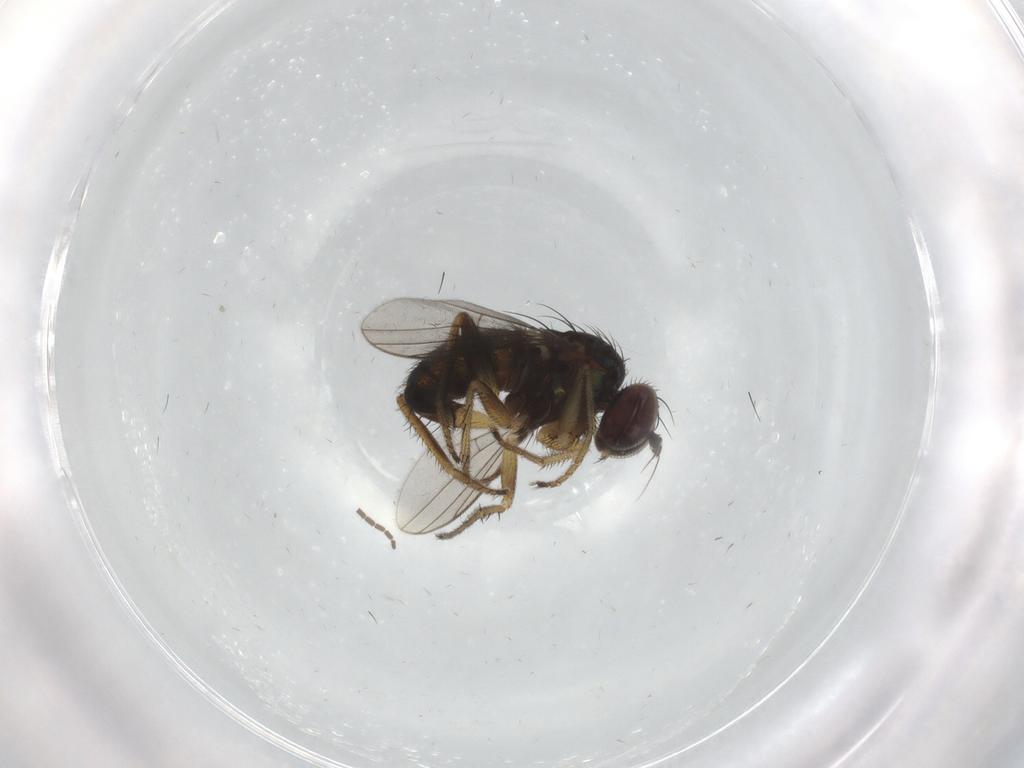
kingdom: Animalia
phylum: Arthropoda
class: Insecta
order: Diptera
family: Dolichopodidae
